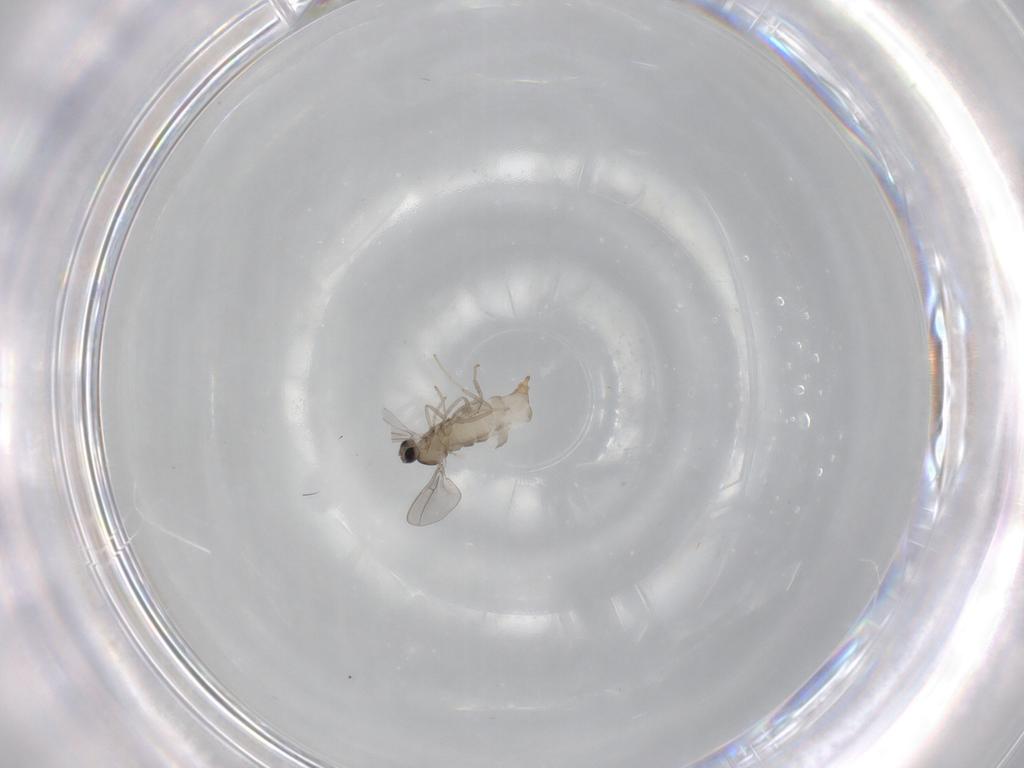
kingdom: Animalia
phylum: Arthropoda
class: Insecta
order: Diptera
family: Cecidomyiidae
